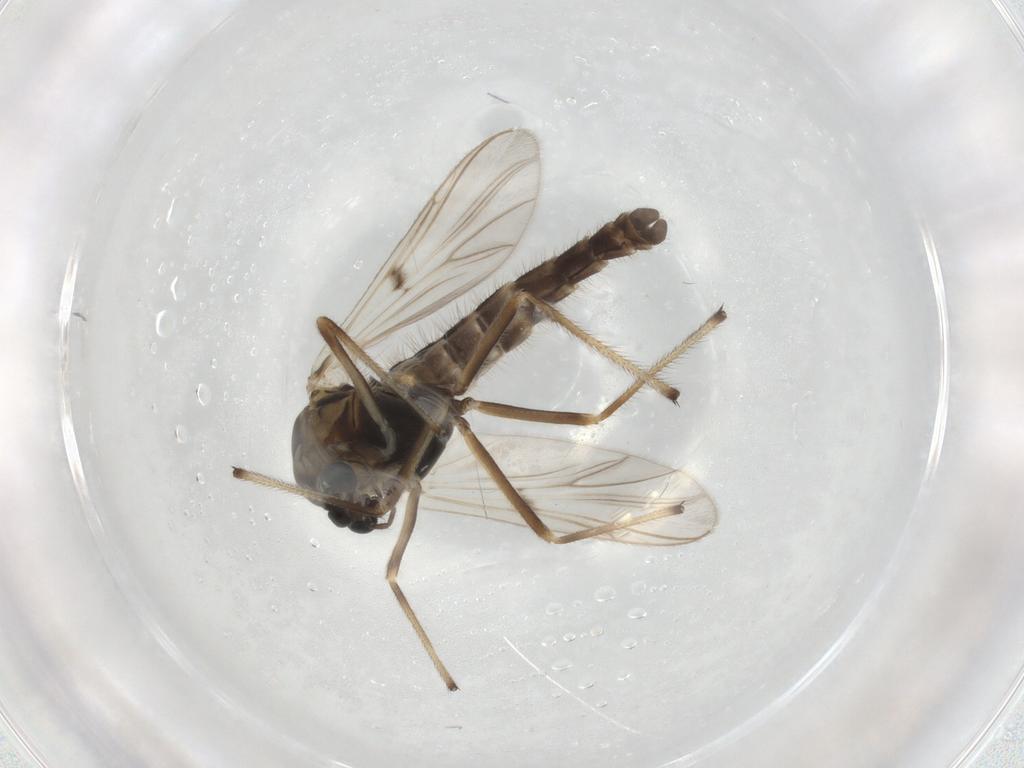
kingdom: Animalia
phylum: Arthropoda
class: Insecta
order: Diptera
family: Chironomidae
